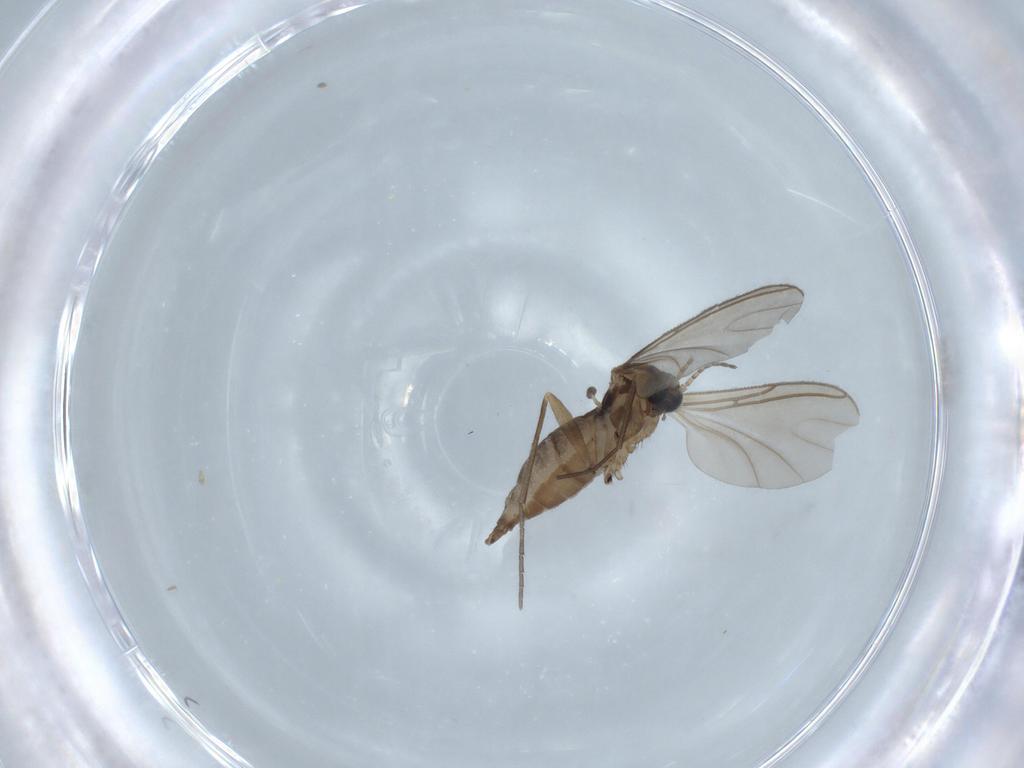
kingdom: Animalia
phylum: Arthropoda
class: Insecta
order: Diptera
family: Sciaridae
